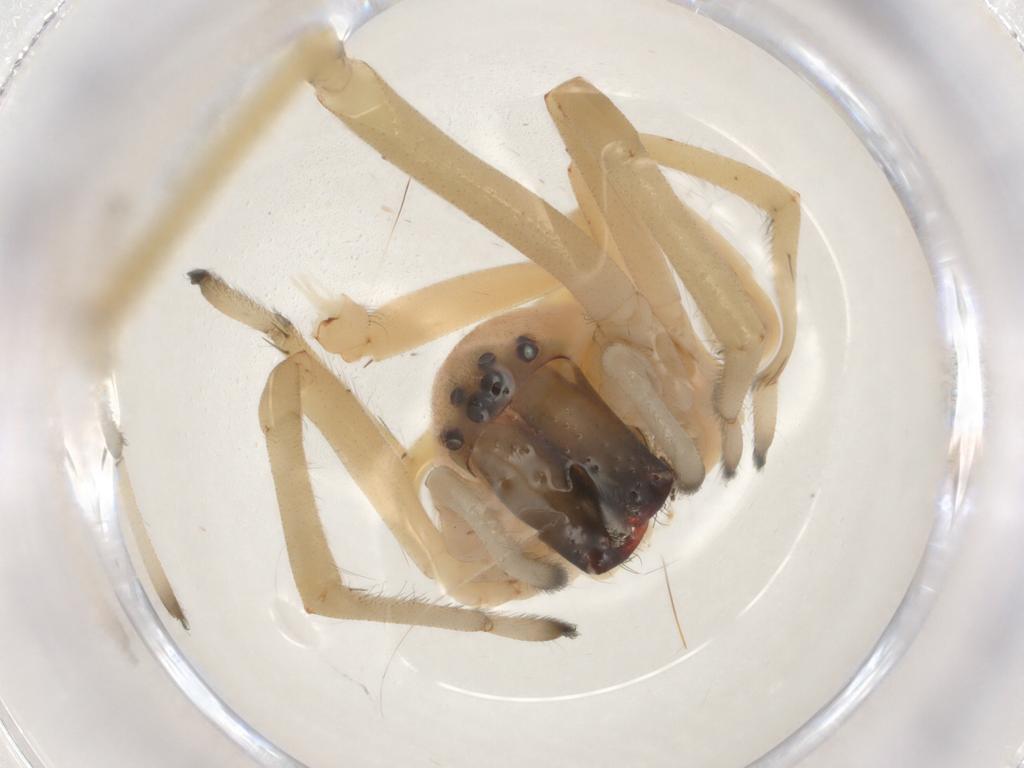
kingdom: Animalia
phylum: Arthropoda
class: Arachnida
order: Araneae
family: Cheiracanthiidae
